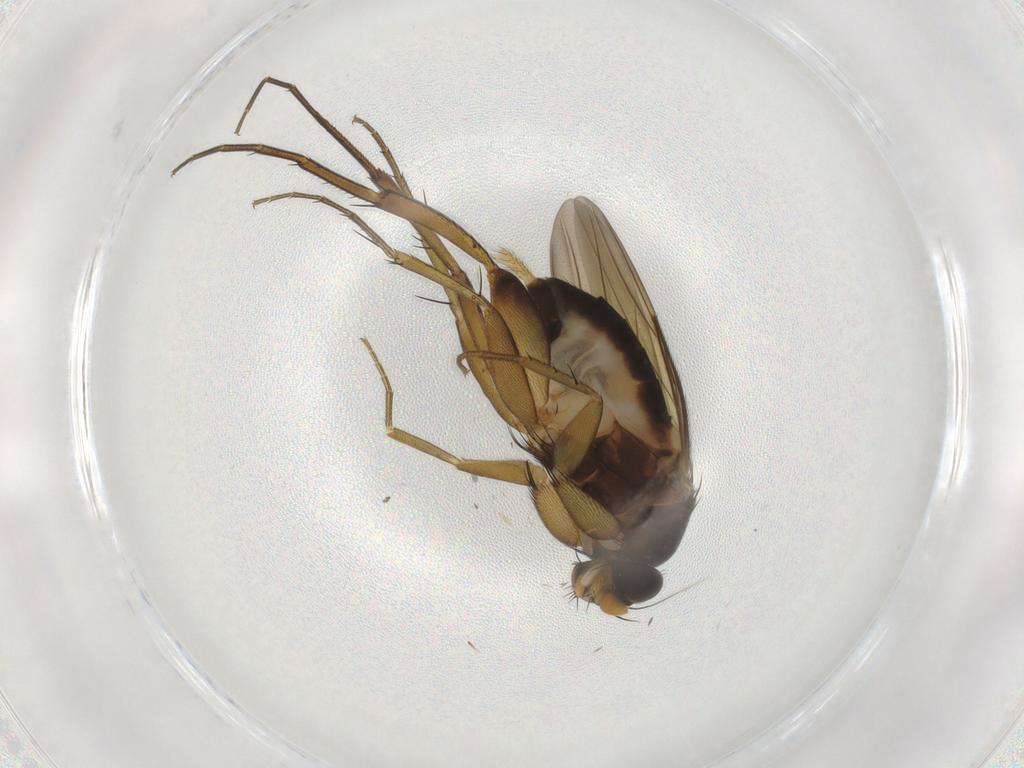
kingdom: Animalia
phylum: Arthropoda
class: Insecta
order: Diptera
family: Phoridae
